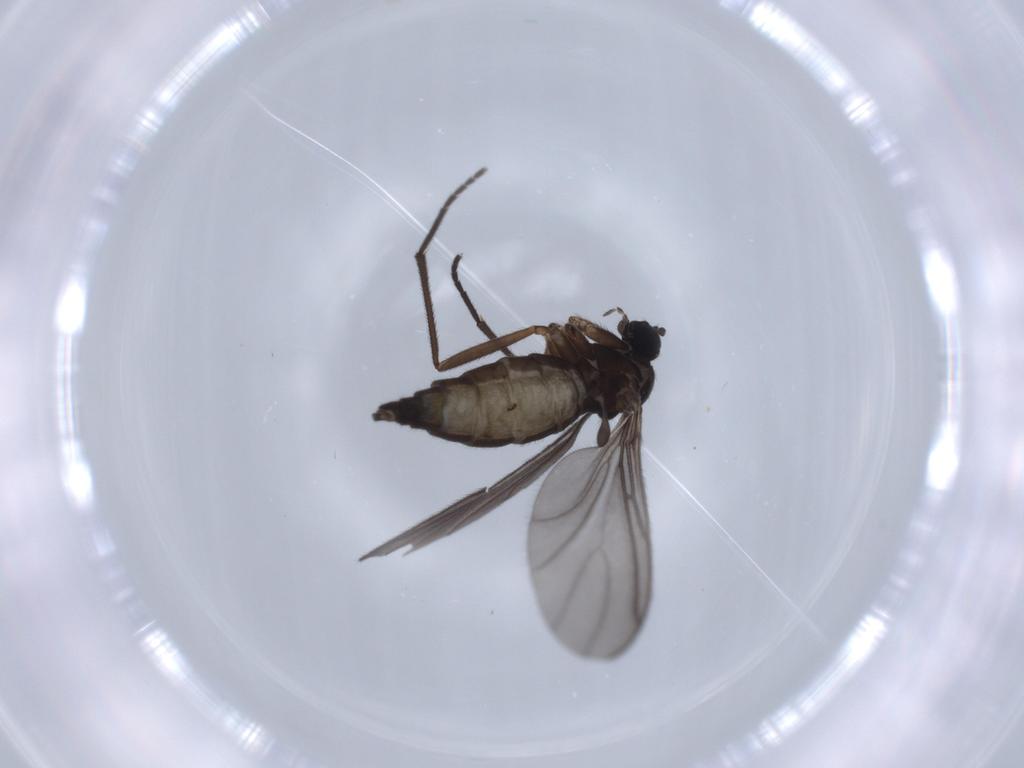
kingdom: Animalia
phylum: Arthropoda
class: Insecta
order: Diptera
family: Sciaridae
